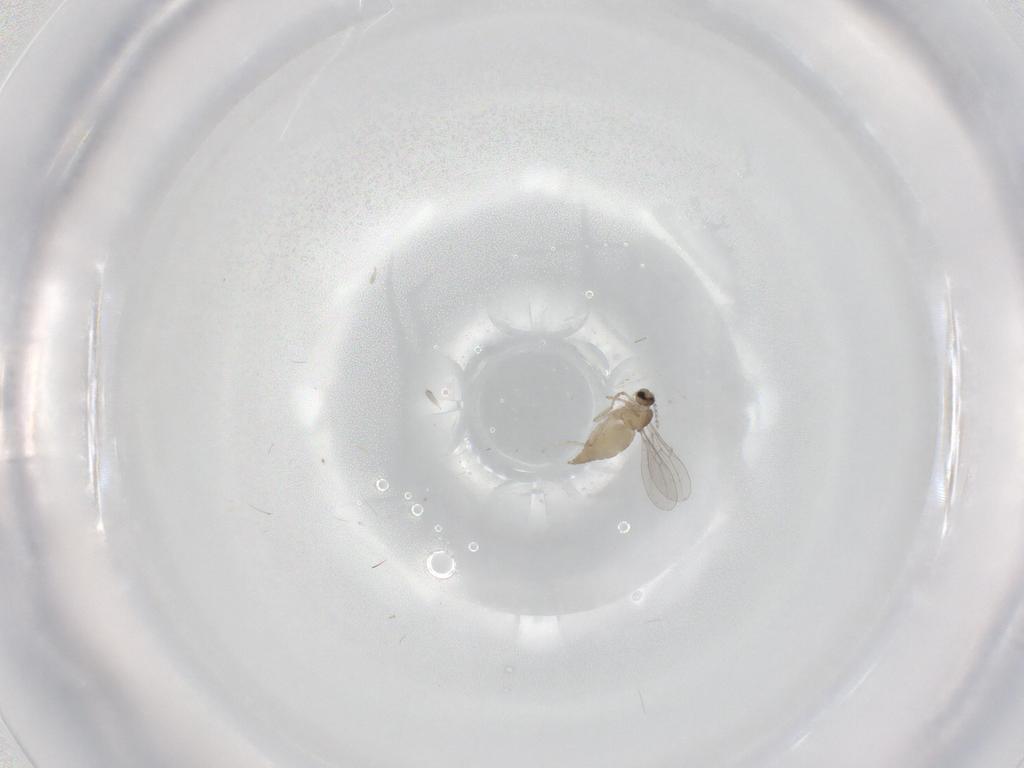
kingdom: Animalia
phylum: Arthropoda
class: Insecta
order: Diptera
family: Cecidomyiidae
